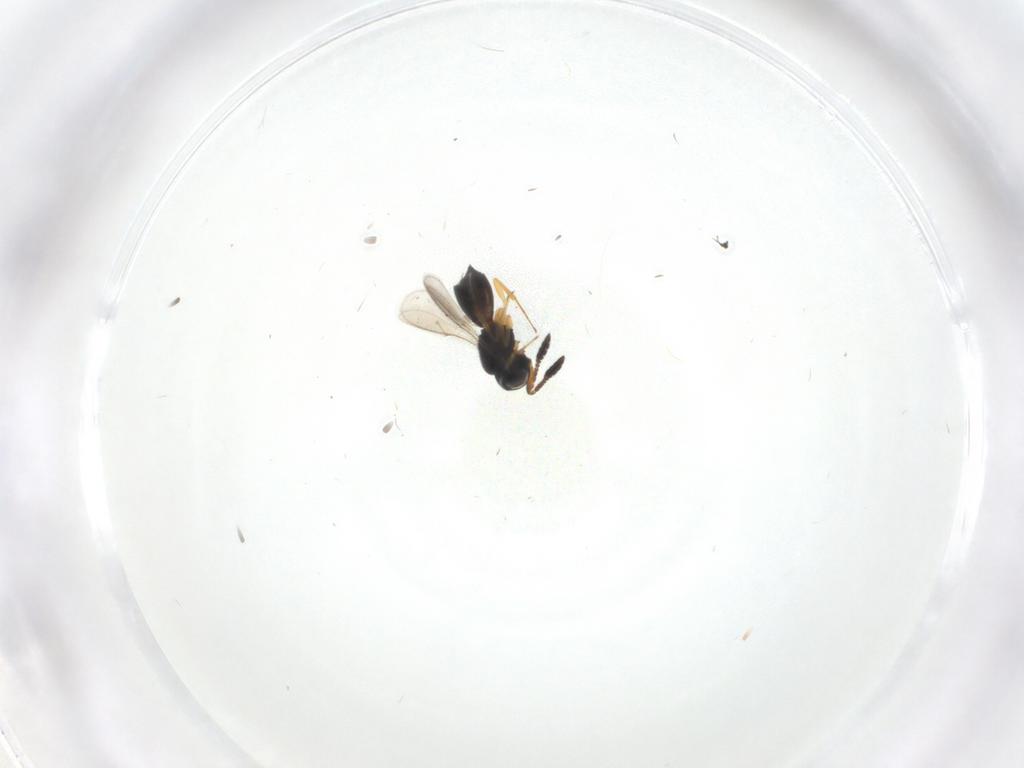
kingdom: Animalia
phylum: Arthropoda
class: Insecta
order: Hymenoptera
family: Scelionidae
